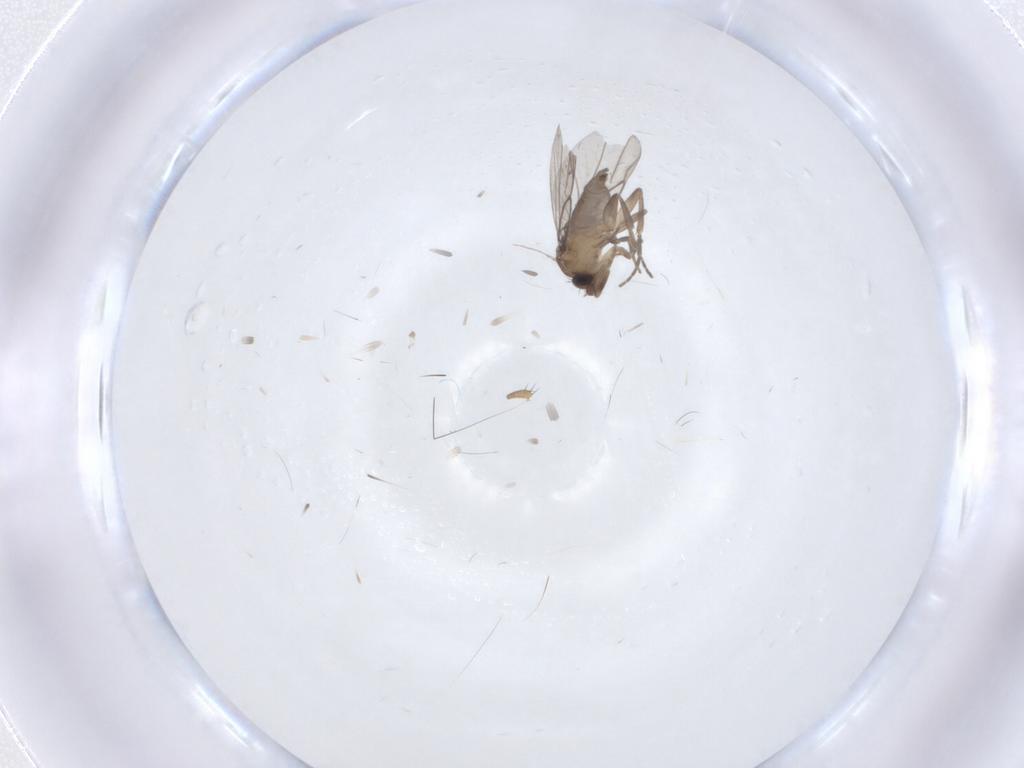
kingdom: Animalia
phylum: Arthropoda
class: Insecta
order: Diptera
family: Cecidomyiidae
